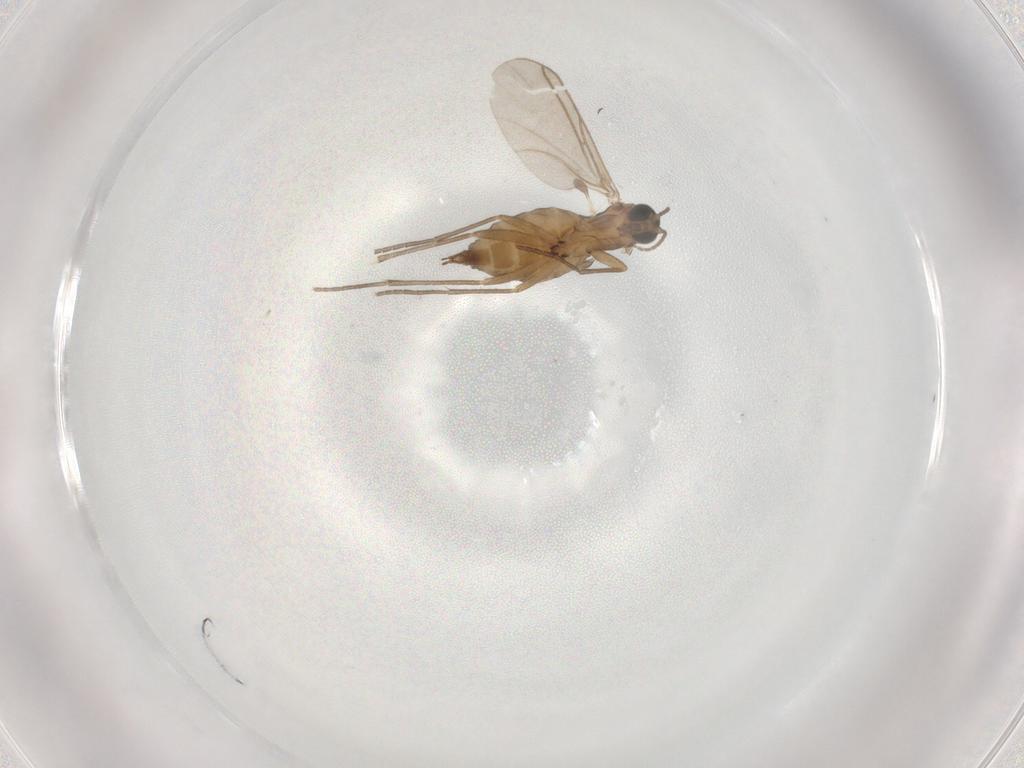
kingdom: Animalia
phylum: Arthropoda
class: Insecta
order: Diptera
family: Sciaridae
